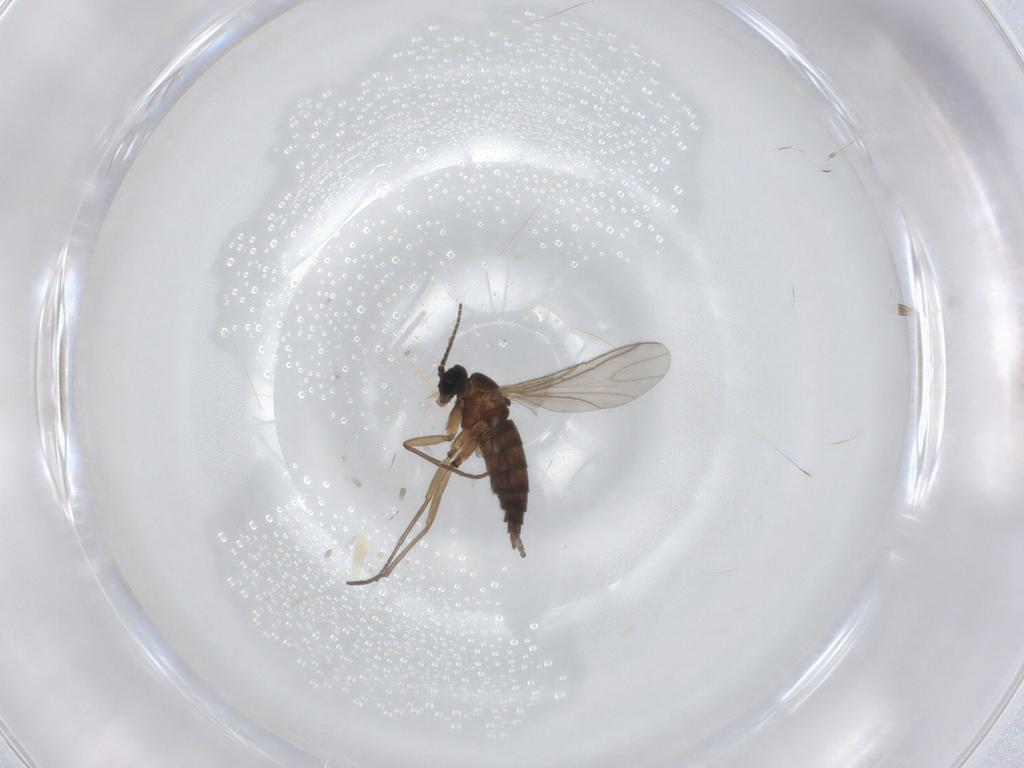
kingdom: Animalia
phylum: Arthropoda
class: Insecta
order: Diptera
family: Sciaridae
